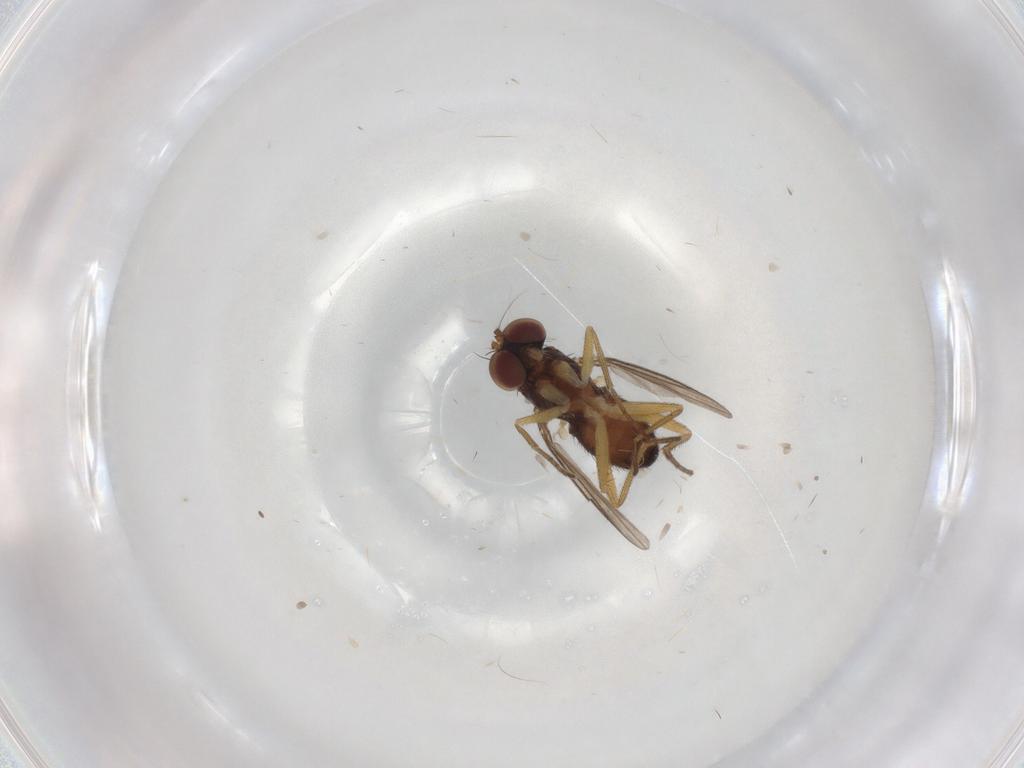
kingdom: Animalia
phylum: Arthropoda
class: Insecta
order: Diptera
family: Dolichopodidae
